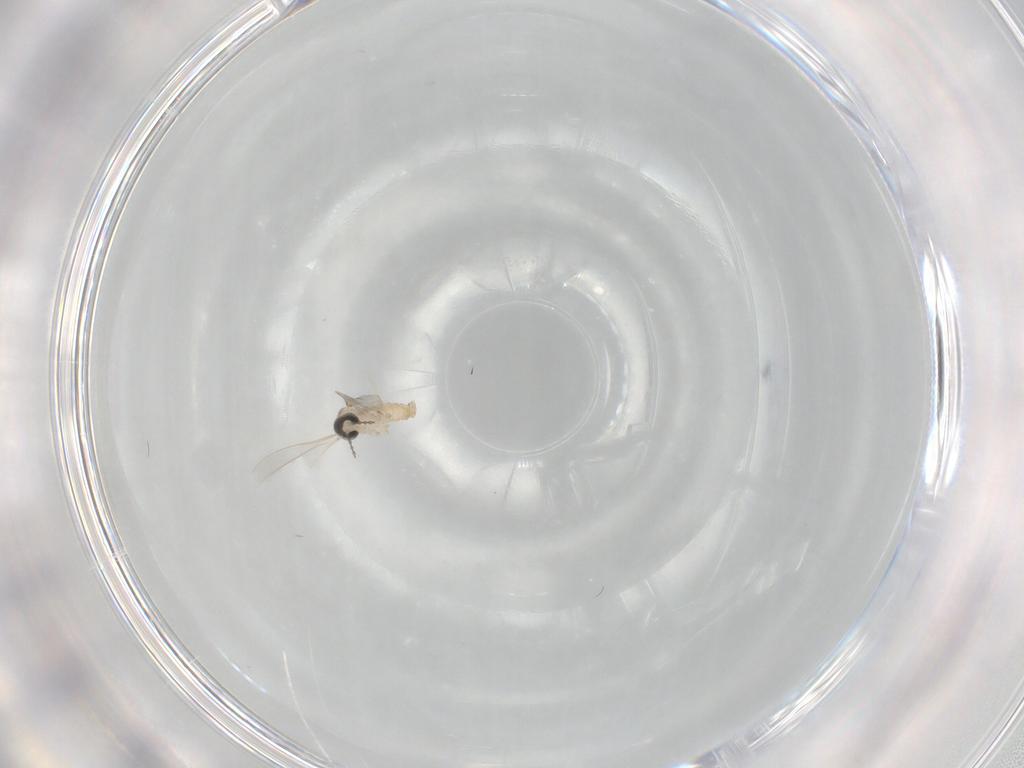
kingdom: Animalia
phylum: Arthropoda
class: Insecta
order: Diptera
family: Cecidomyiidae
